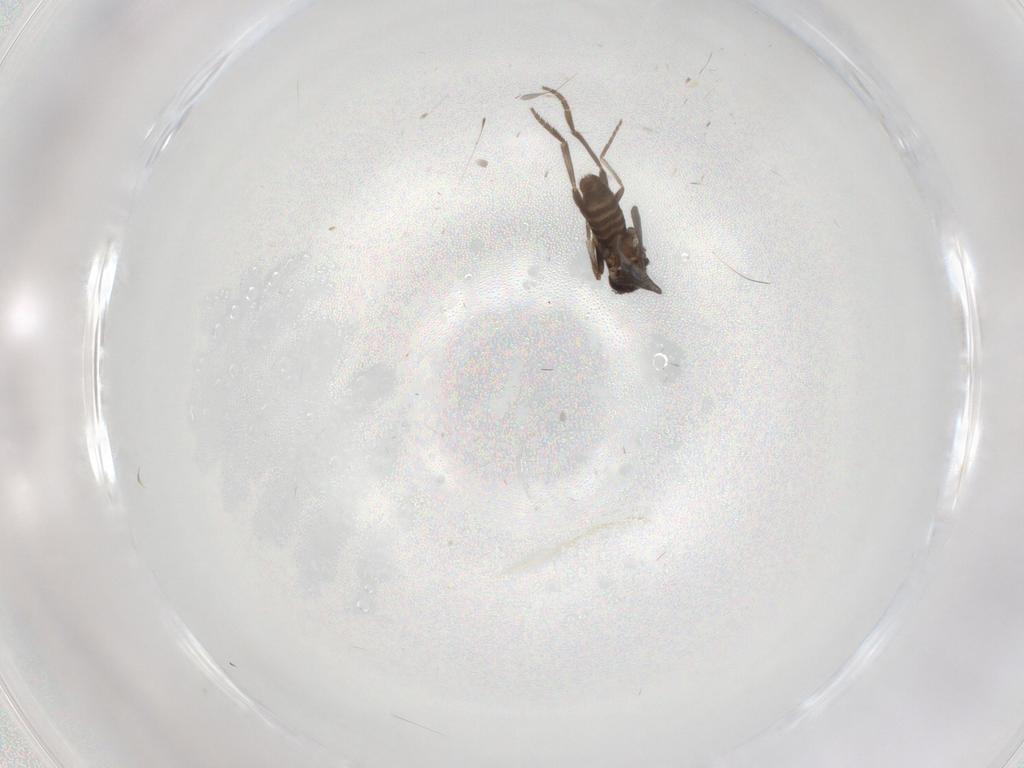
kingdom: Animalia
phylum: Arthropoda
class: Insecta
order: Diptera
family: Phoridae
